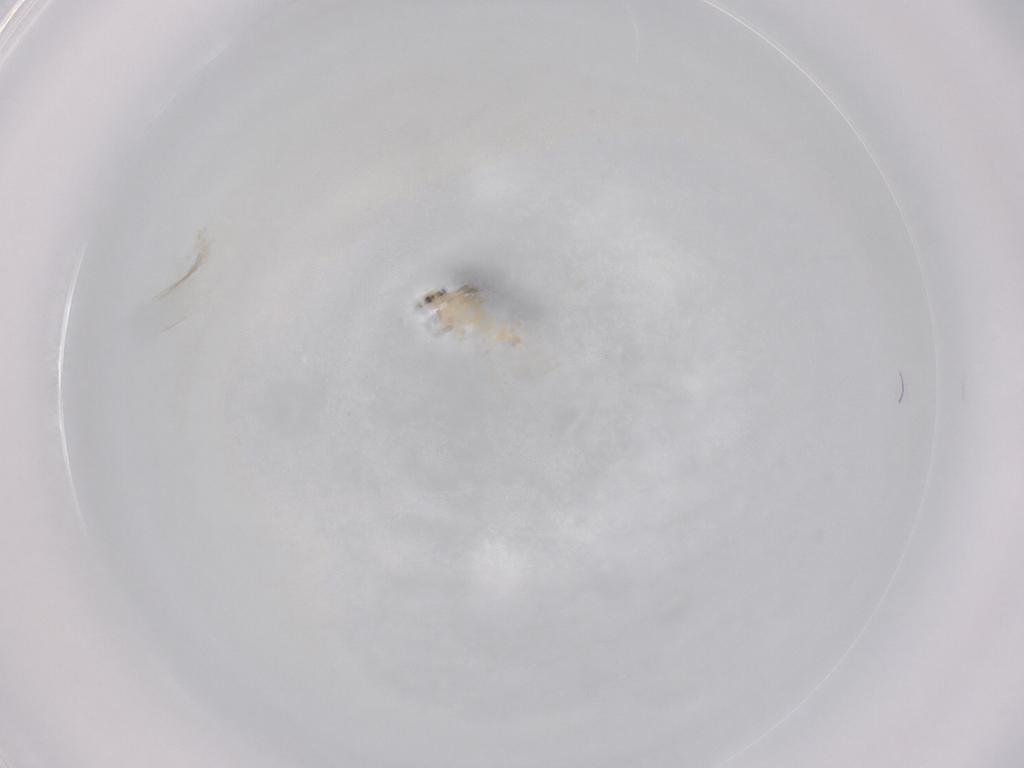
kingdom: Animalia
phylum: Arthropoda
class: Insecta
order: Diptera
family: Cecidomyiidae
